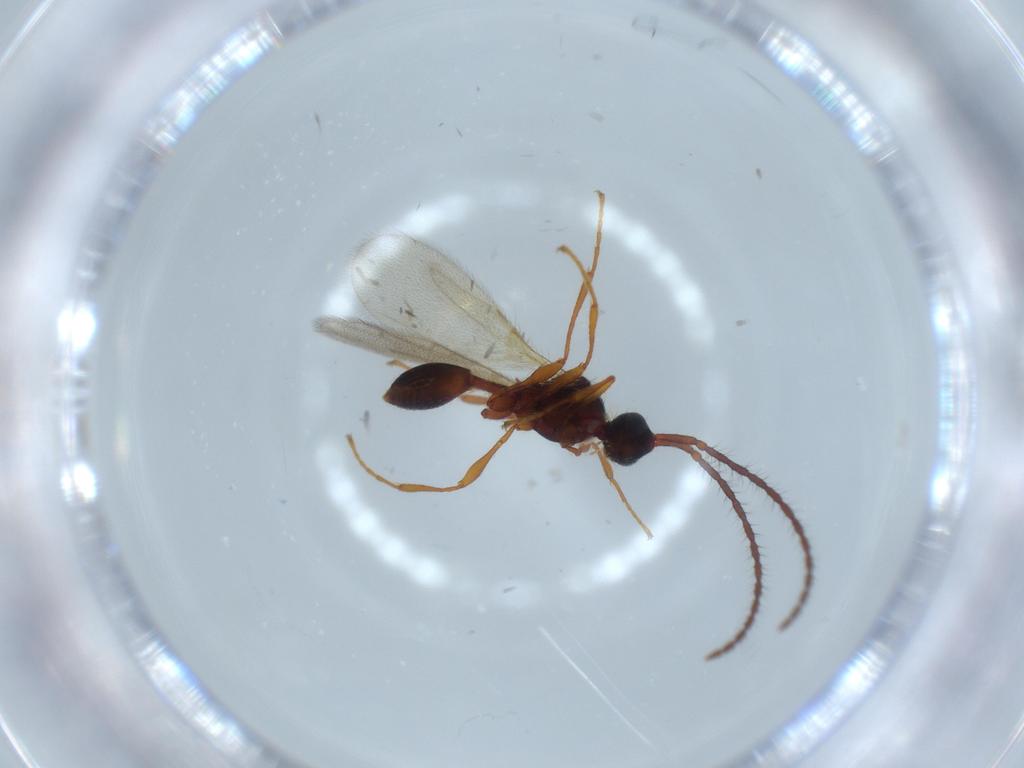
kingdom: Animalia
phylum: Arthropoda
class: Insecta
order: Hymenoptera
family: Diapriidae
